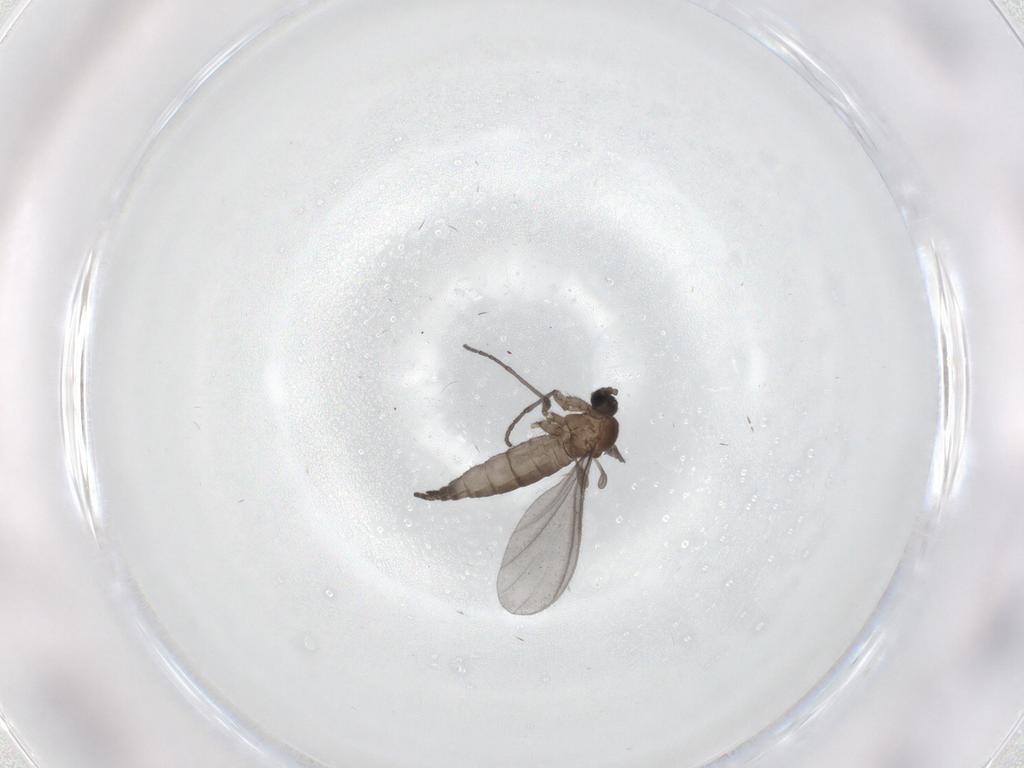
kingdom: Animalia
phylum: Arthropoda
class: Insecta
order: Diptera
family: Sciaridae
